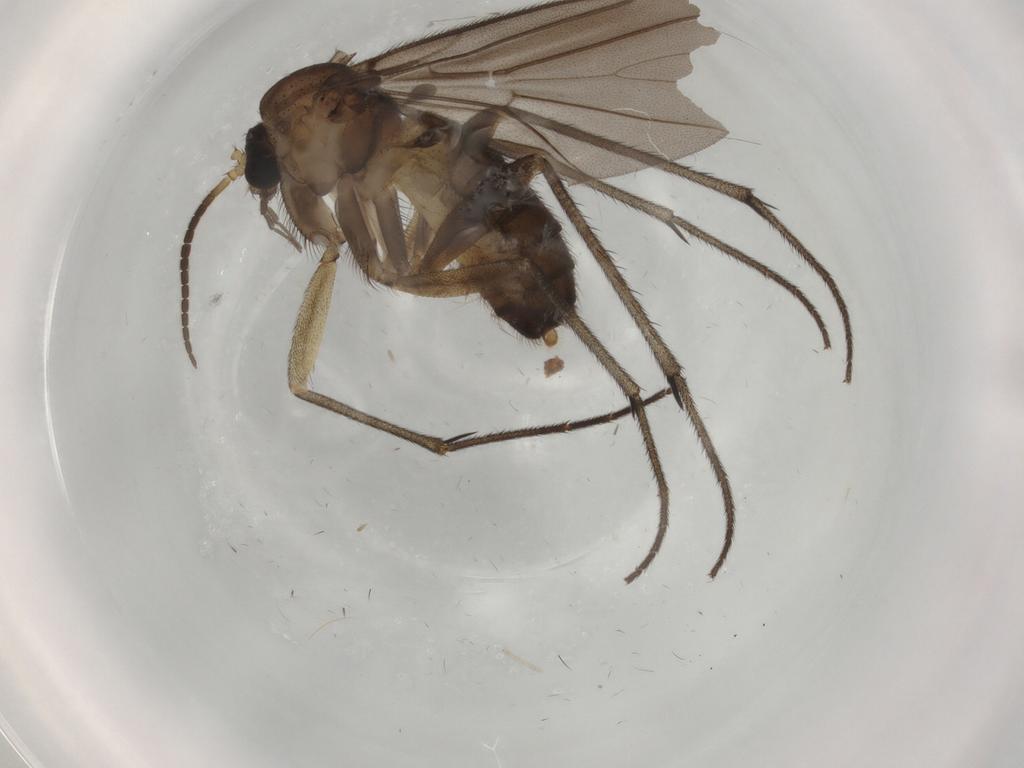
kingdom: Animalia
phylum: Arthropoda
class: Insecta
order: Diptera
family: Diadocidiidae
